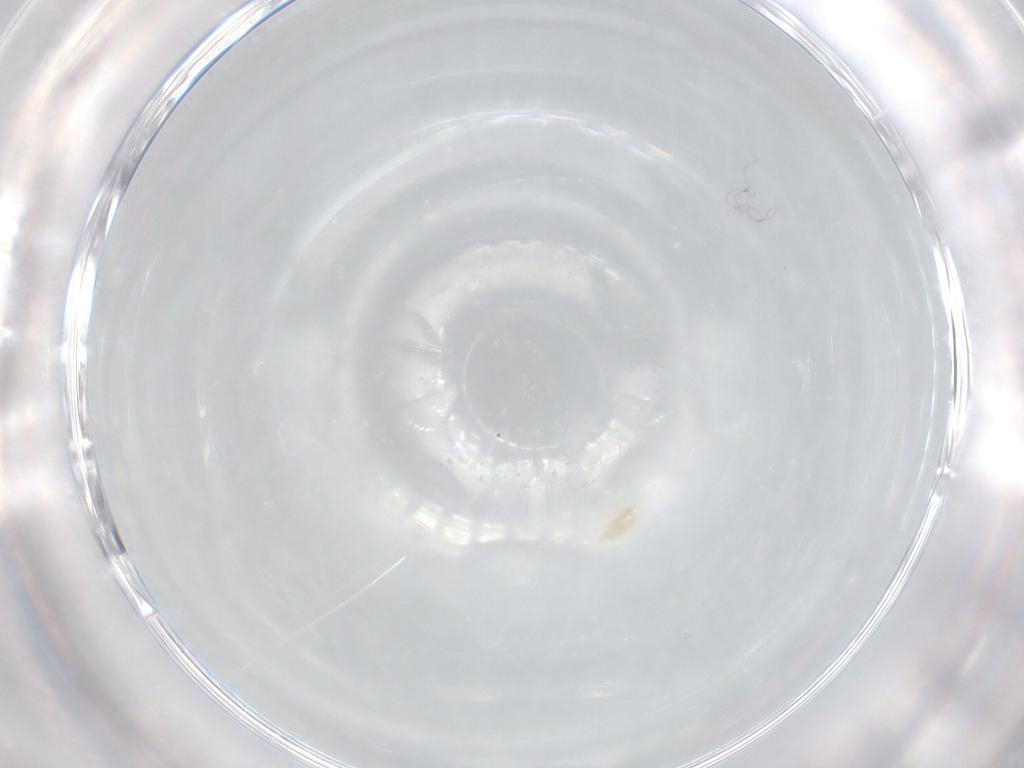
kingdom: Animalia
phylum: Arthropoda
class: Arachnida
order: Trombidiformes
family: Eupodidae
